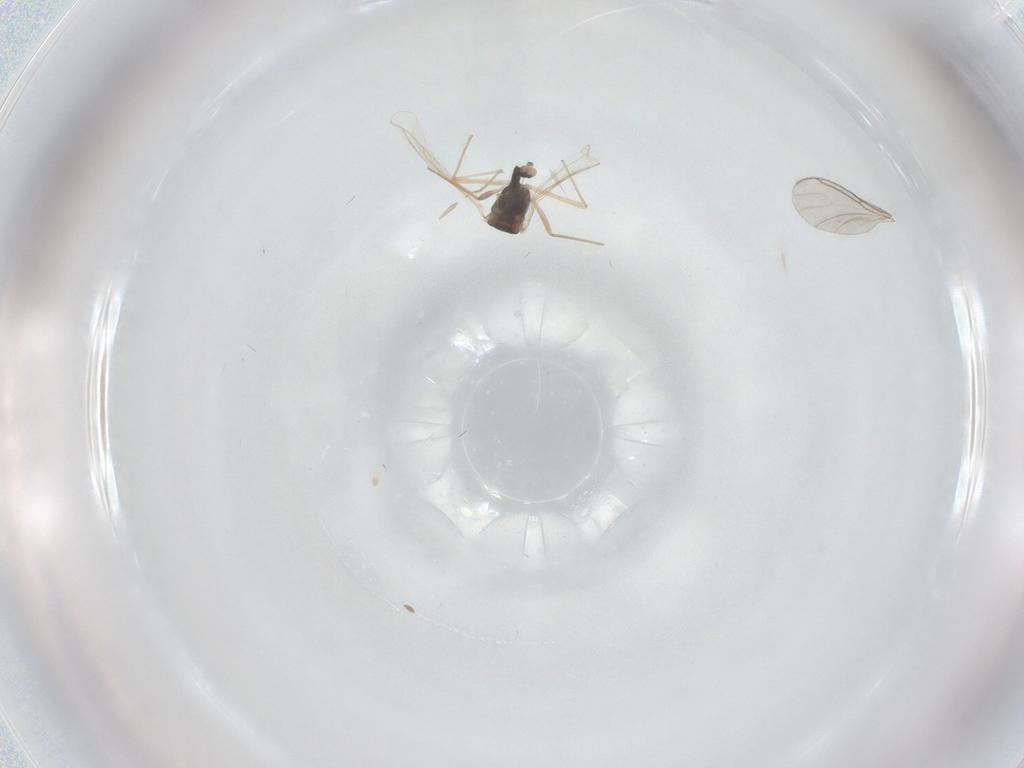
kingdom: Animalia
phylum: Arthropoda
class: Insecta
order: Diptera
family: Chironomidae
